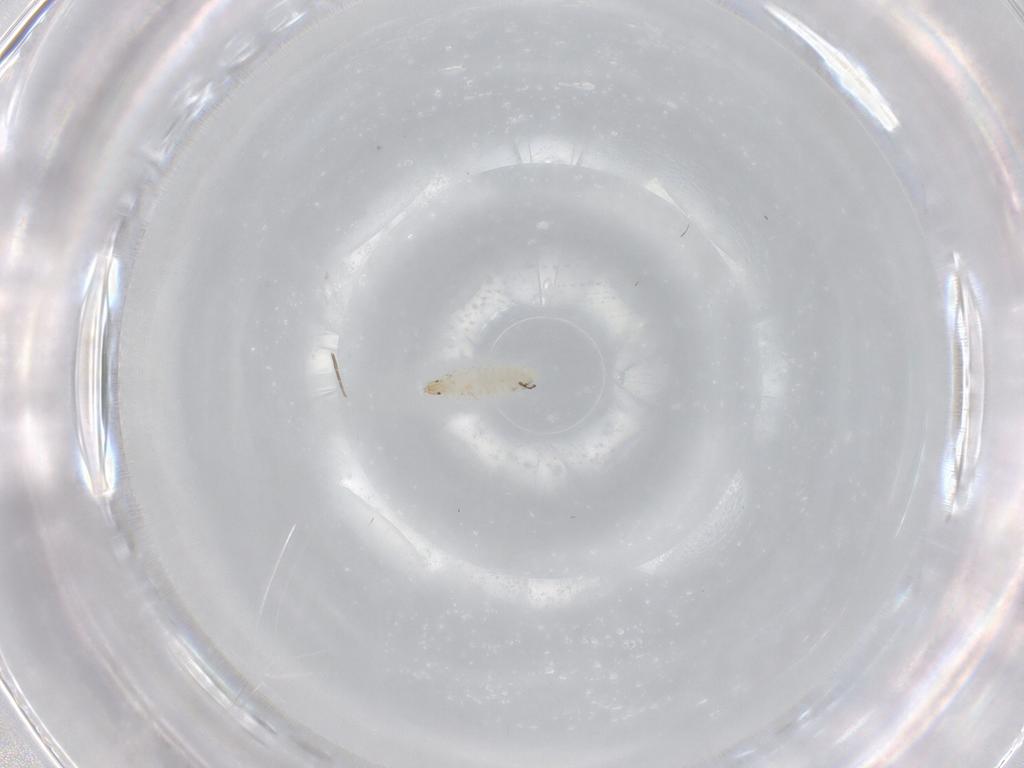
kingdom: Animalia
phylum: Arthropoda
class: Insecta
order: Diptera
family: Phoridae
